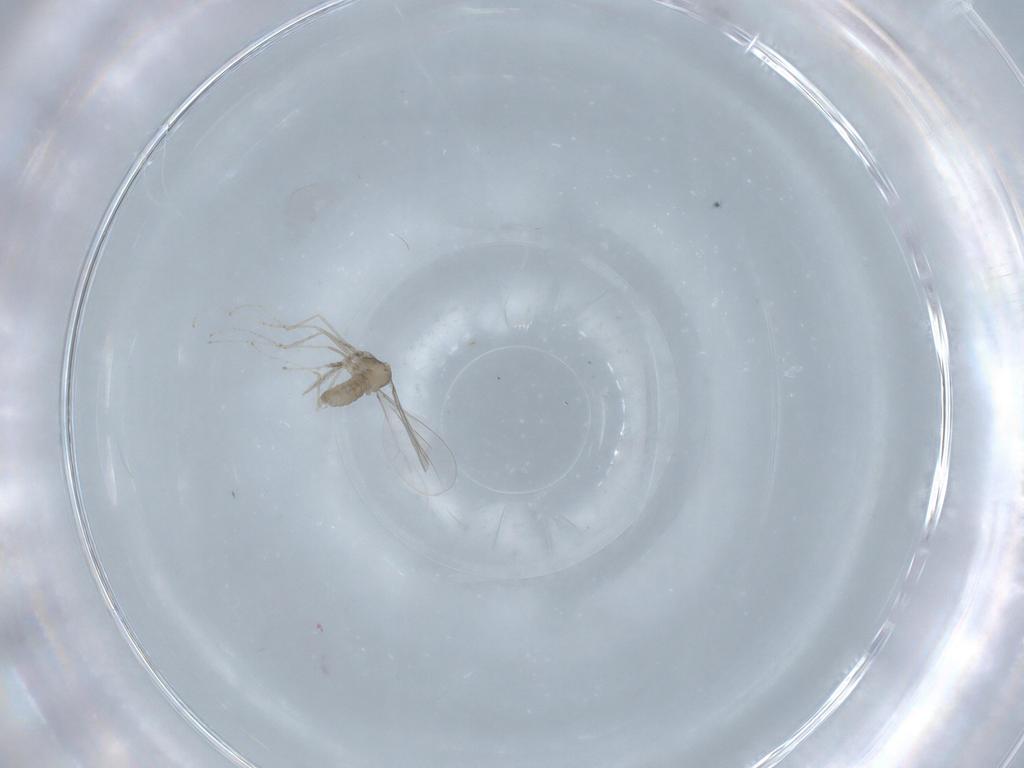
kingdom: Animalia
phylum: Arthropoda
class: Insecta
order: Diptera
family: Cecidomyiidae
